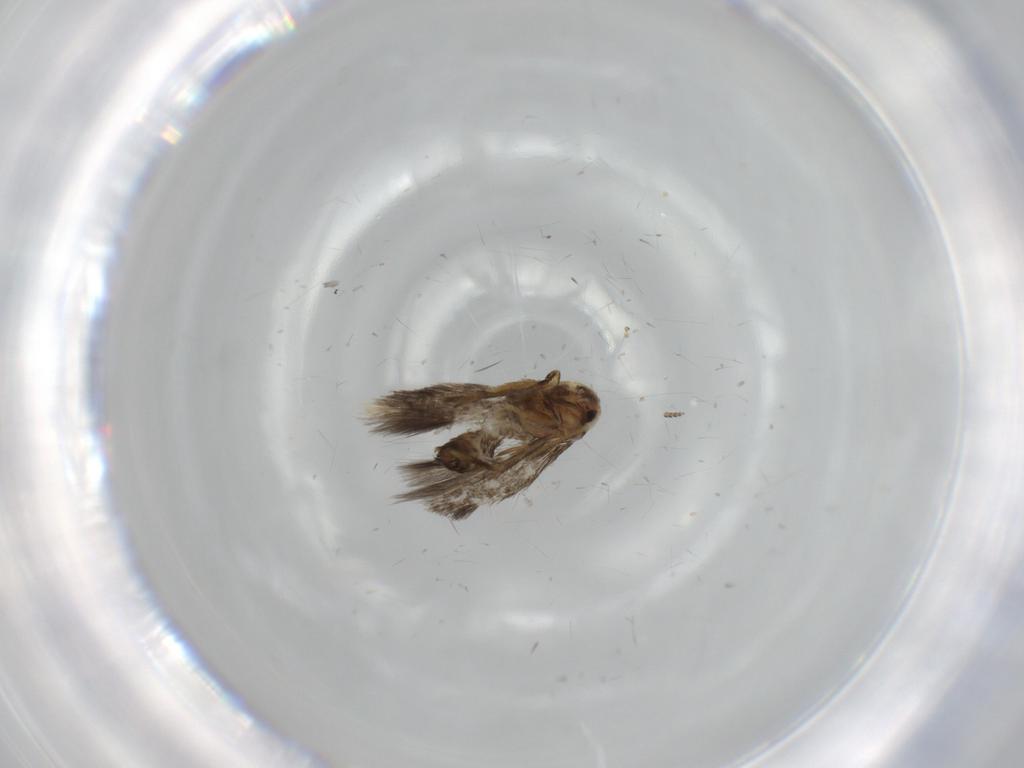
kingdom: Animalia
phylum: Arthropoda
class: Insecta
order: Lepidoptera
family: Nepticulidae
